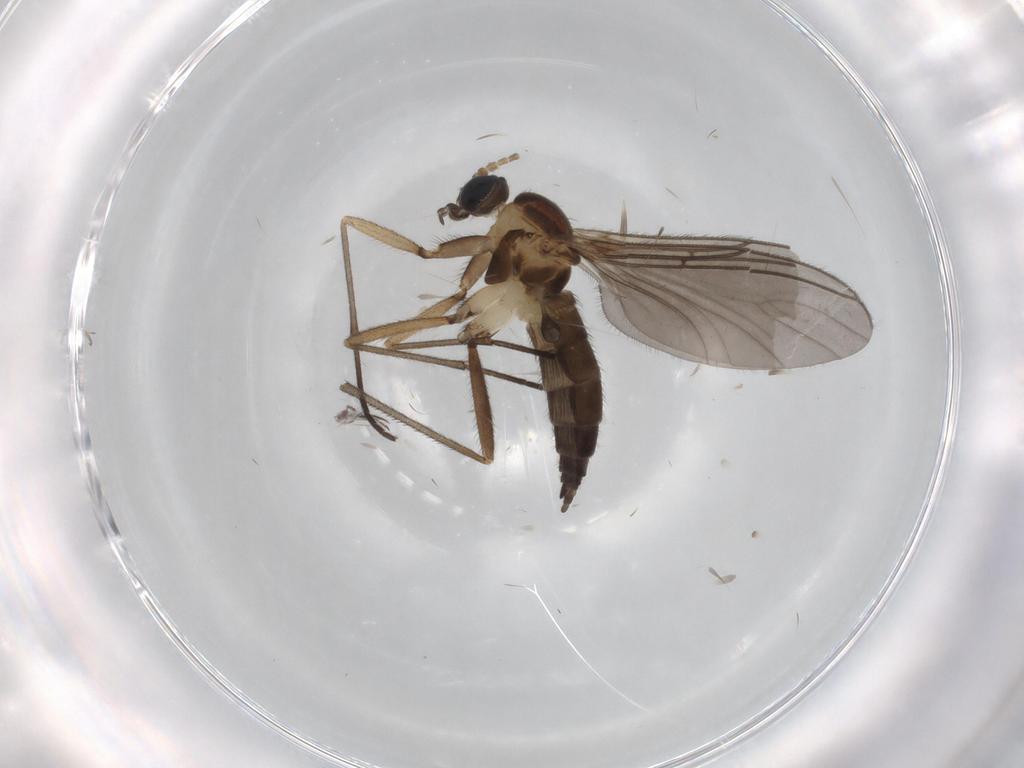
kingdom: Animalia
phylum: Arthropoda
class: Insecta
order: Diptera
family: Sciaridae
